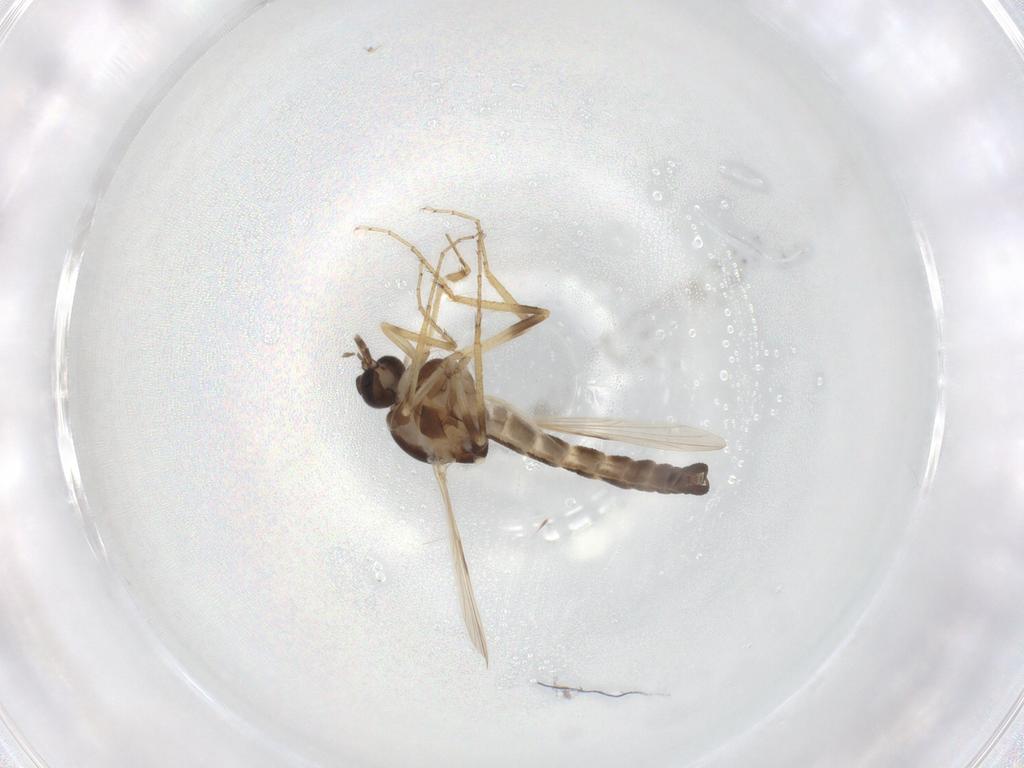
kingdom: Animalia
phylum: Arthropoda
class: Insecta
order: Diptera
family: Ceratopogonidae
